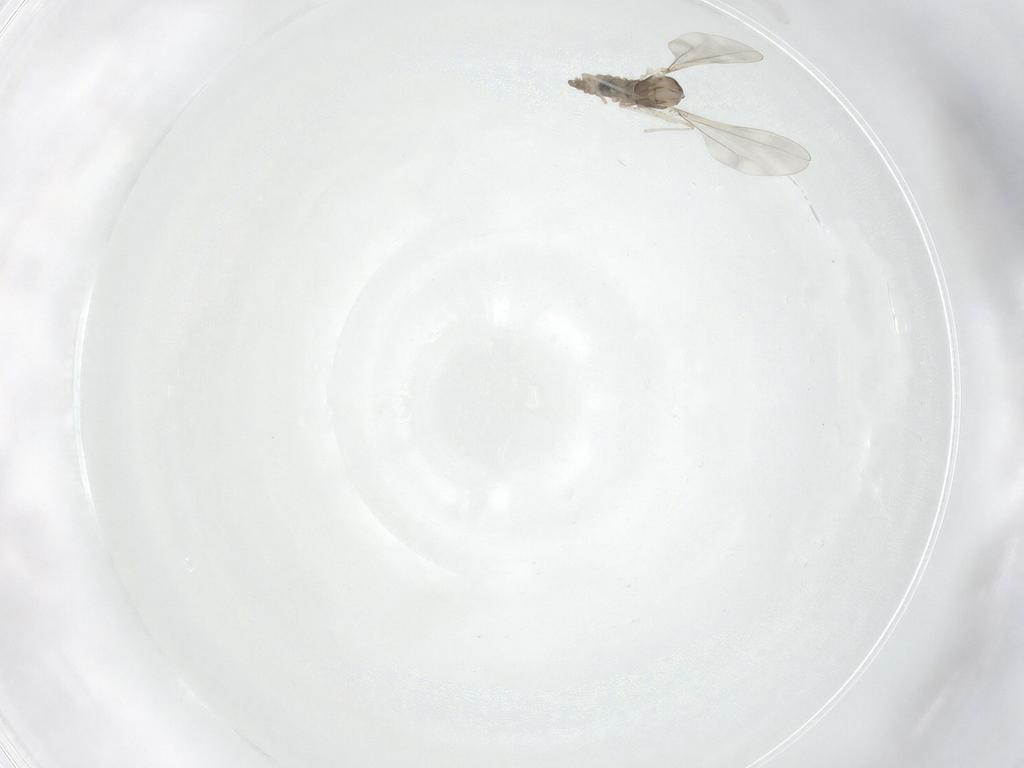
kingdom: Animalia
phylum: Arthropoda
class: Insecta
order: Diptera
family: Cecidomyiidae
